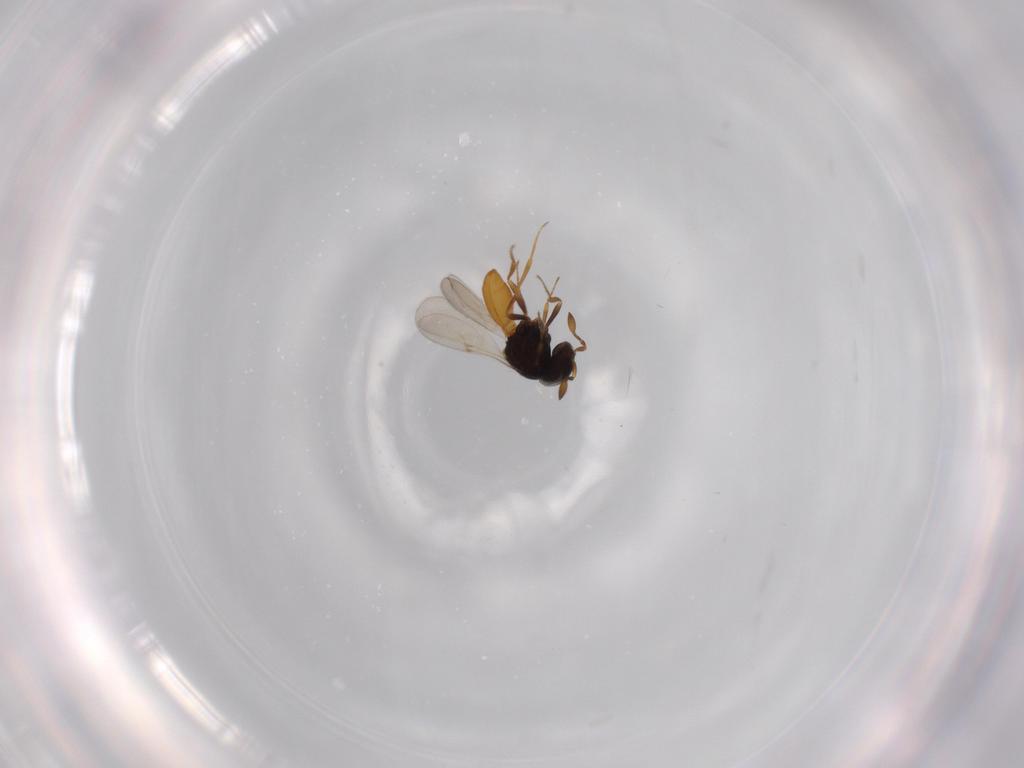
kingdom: Animalia
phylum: Arthropoda
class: Insecta
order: Hymenoptera
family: Scelionidae
